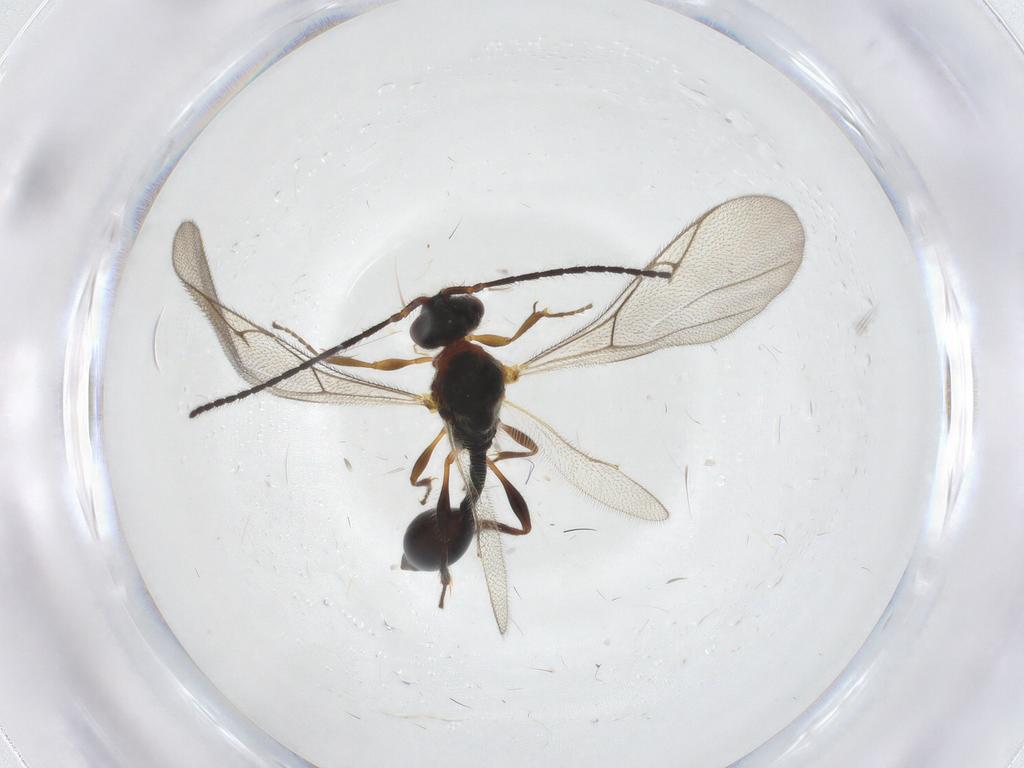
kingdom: Animalia
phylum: Arthropoda
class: Insecta
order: Hymenoptera
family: Diapriidae
